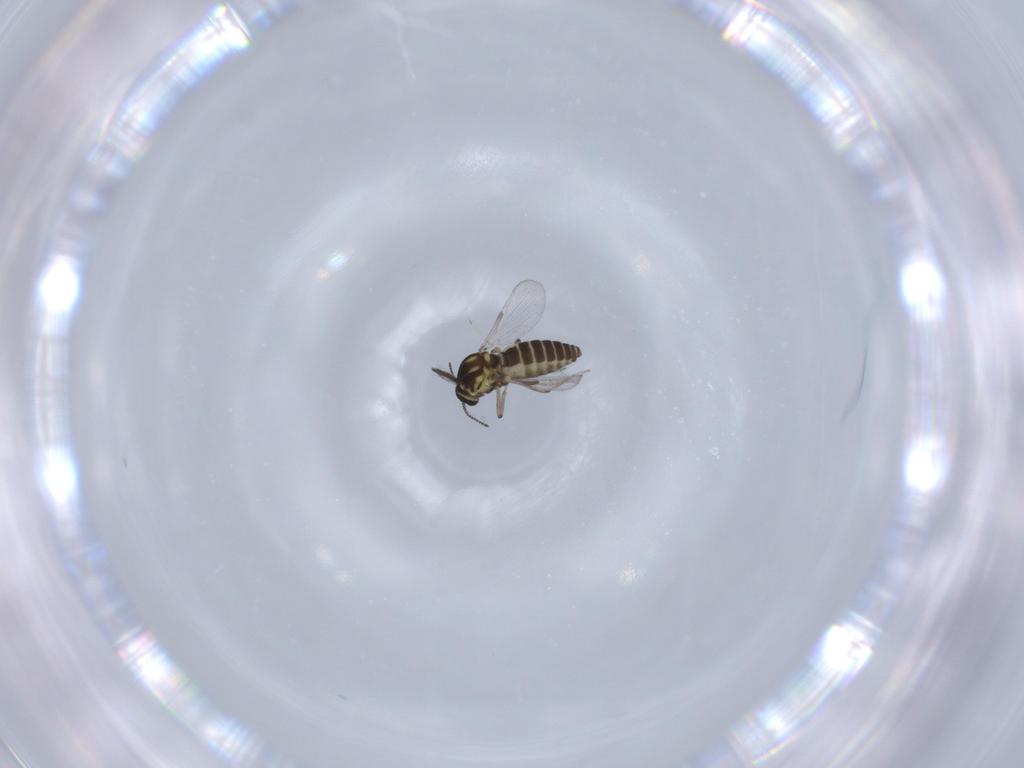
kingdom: Animalia
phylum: Arthropoda
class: Insecta
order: Diptera
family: Ceratopogonidae
